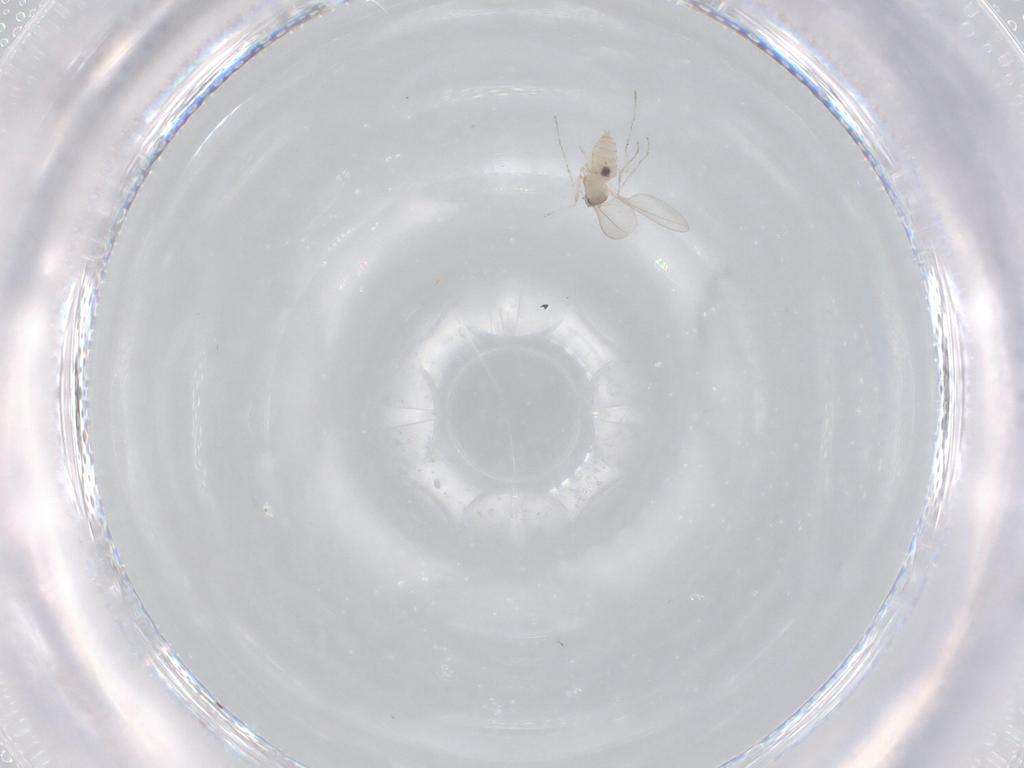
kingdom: Animalia
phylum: Arthropoda
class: Insecta
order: Diptera
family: Cecidomyiidae
